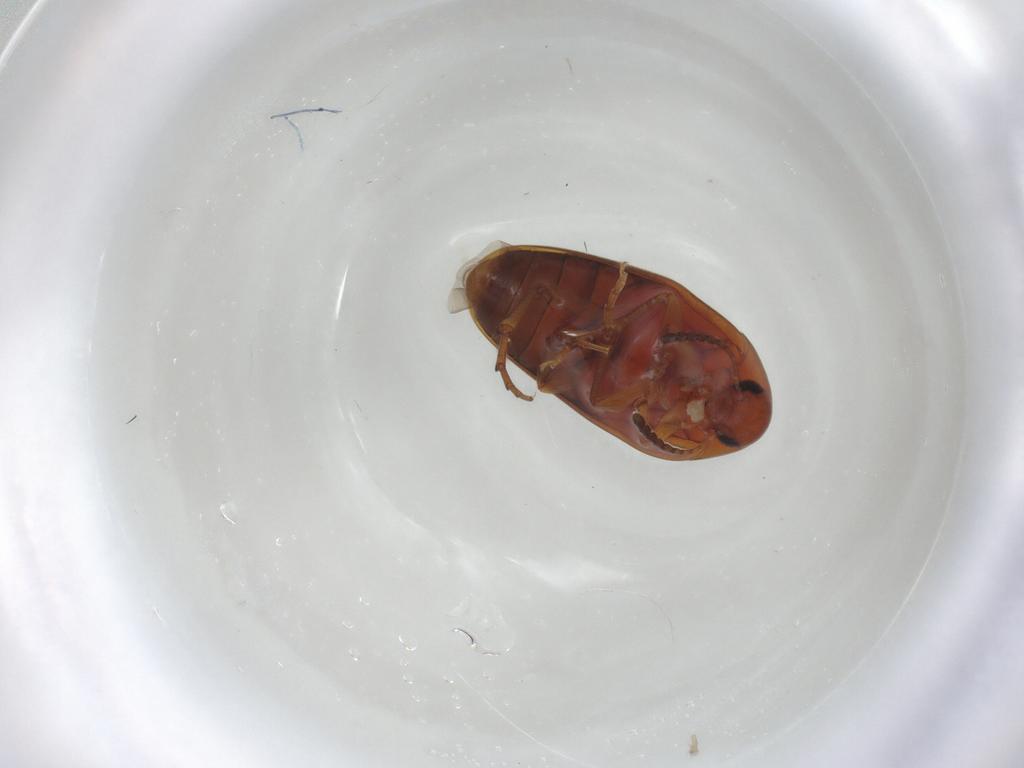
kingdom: Animalia
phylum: Arthropoda
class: Insecta
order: Coleoptera
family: Scraptiidae
